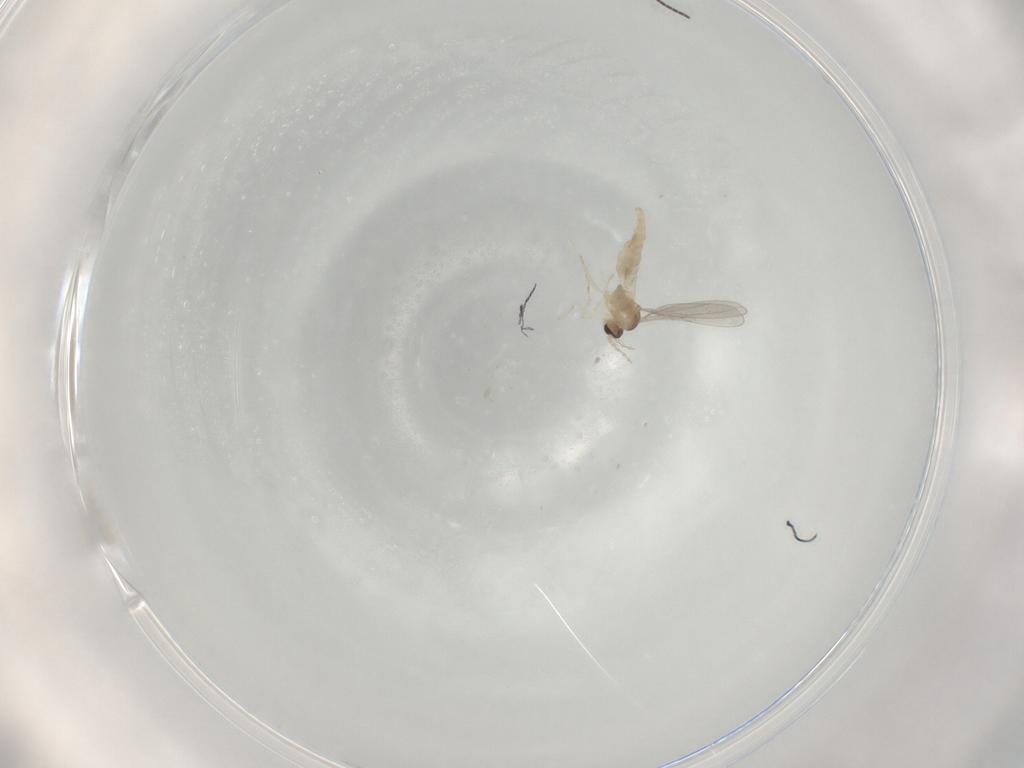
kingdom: Animalia
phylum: Arthropoda
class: Insecta
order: Diptera
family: Cecidomyiidae
